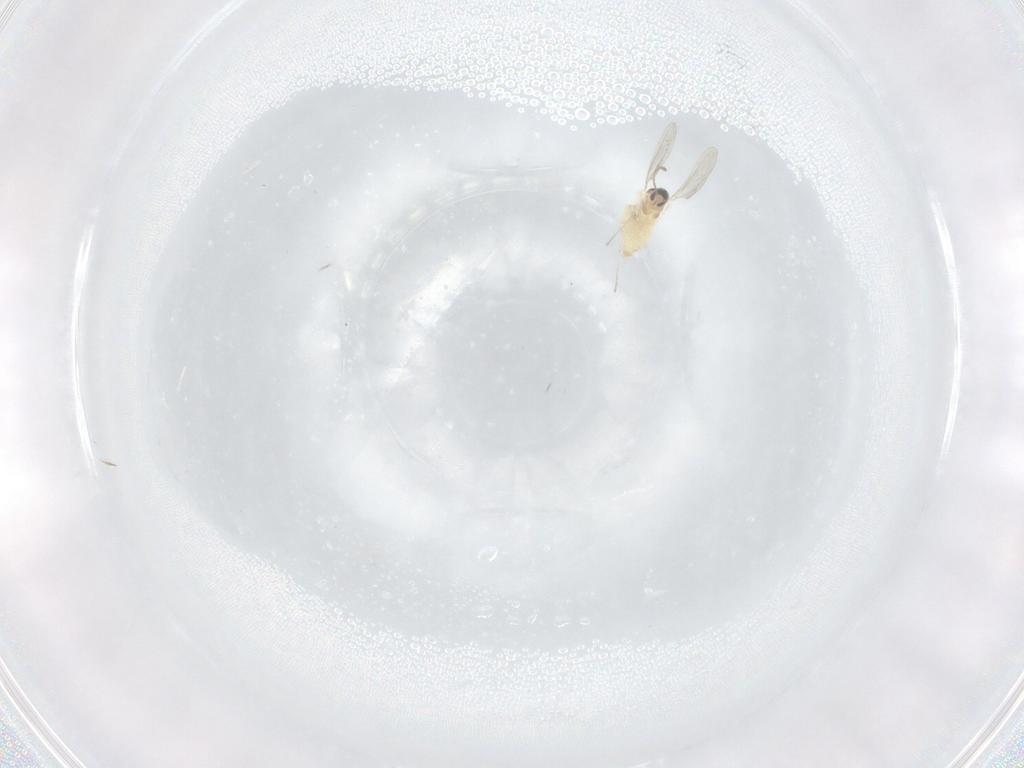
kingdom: Animalia
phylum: Arthropoda
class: Insecta
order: Diptera
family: Cecidomyiidae
